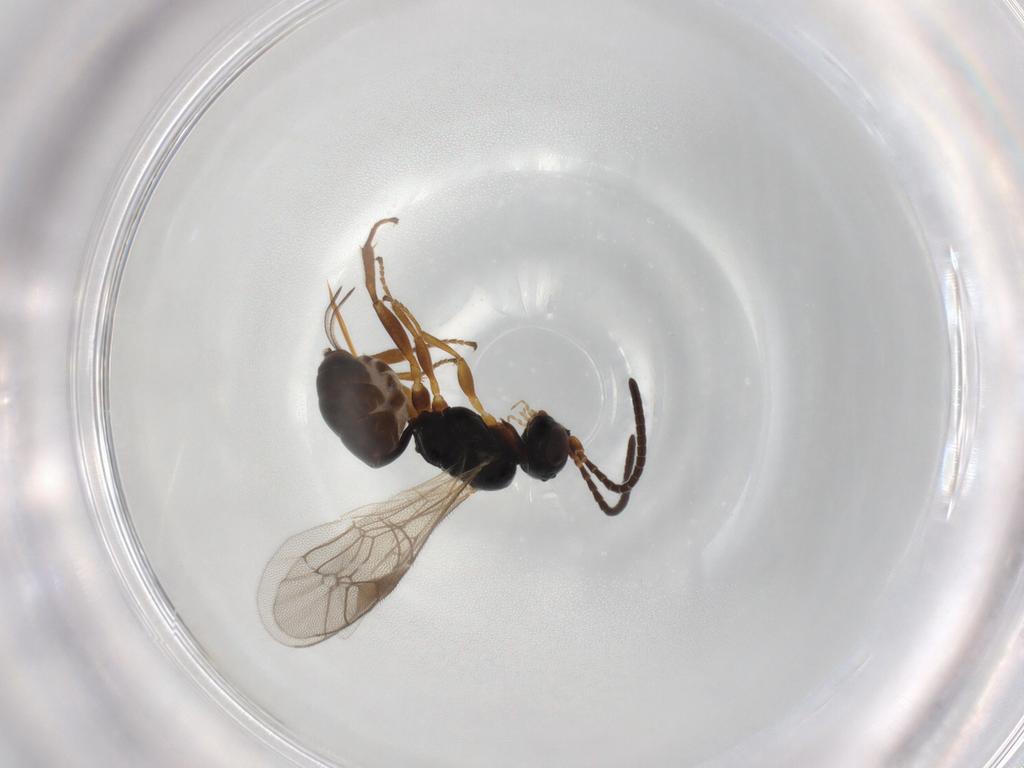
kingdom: Animalia
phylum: Arthropoda
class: Insecta
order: Hymenoptera
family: Ichneumonidae
